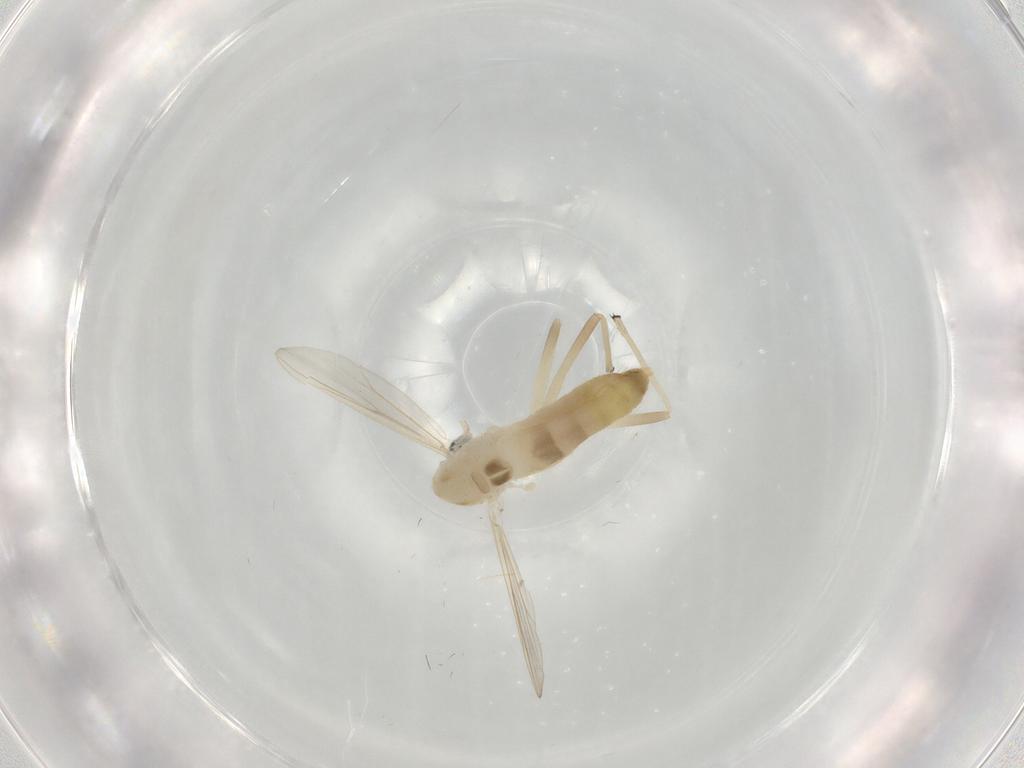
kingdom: Animalia
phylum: Arthropoda
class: Insecta
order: Diptera
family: Chironomidae
